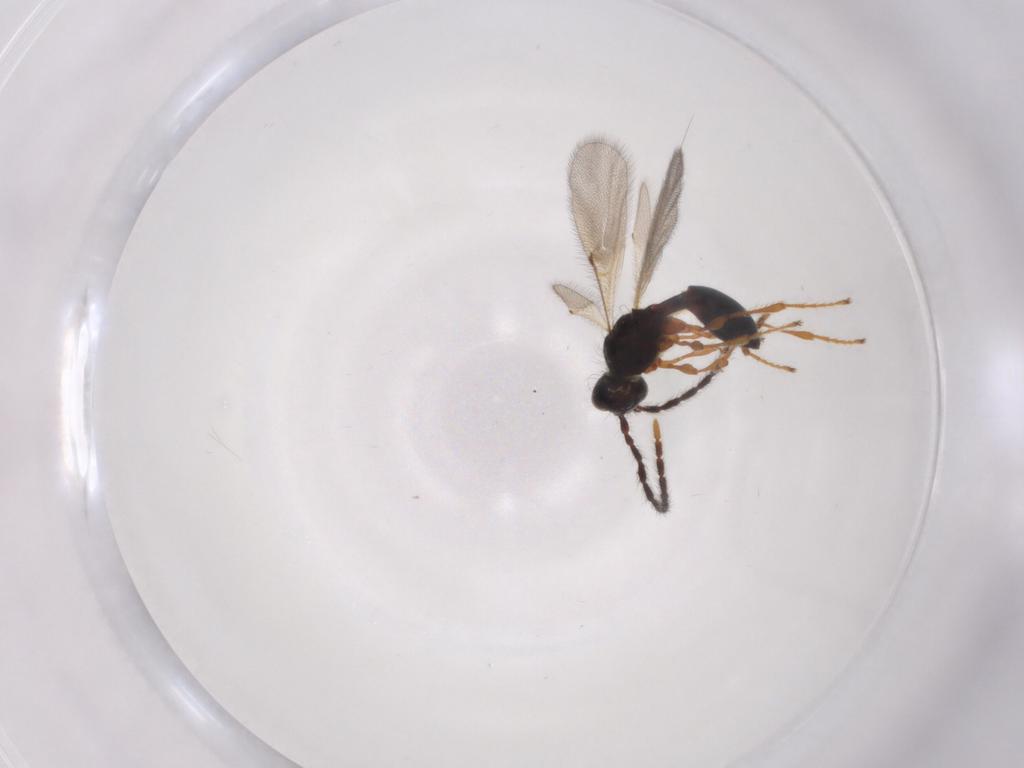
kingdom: Animalia
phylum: Arthropoda
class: Insecta
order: Hymenoptera
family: Diapriidae
